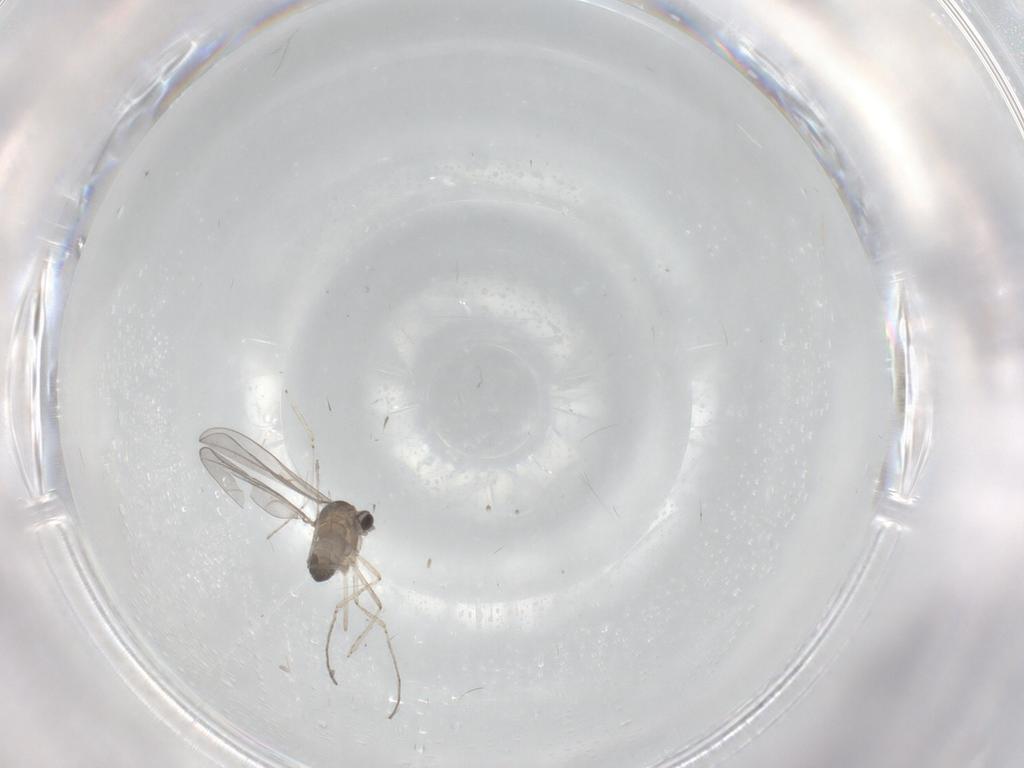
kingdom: Animalia
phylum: Arthropoda
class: Insecta
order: Diptera
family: Cecidomyiidae
